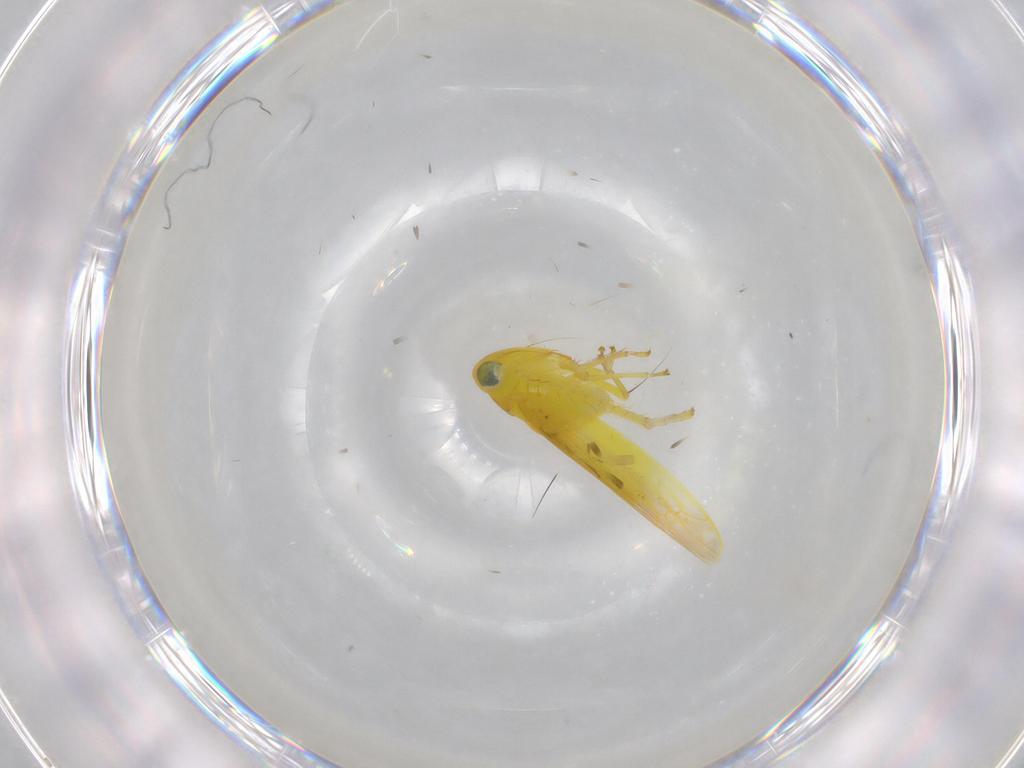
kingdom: Animalia
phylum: Arthropoda
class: Insecta
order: Hemiptera
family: Cicadellidae
